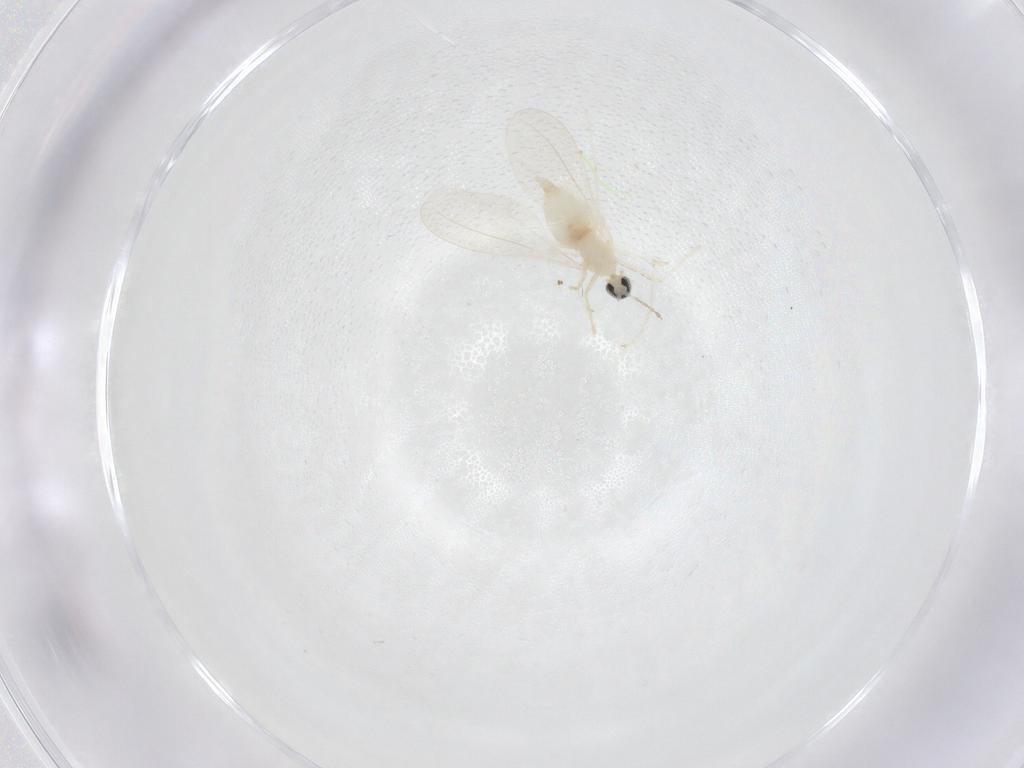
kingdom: Animalia
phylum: Arthropoda
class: Insecta
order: Diptera
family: Cecidomyiidae
